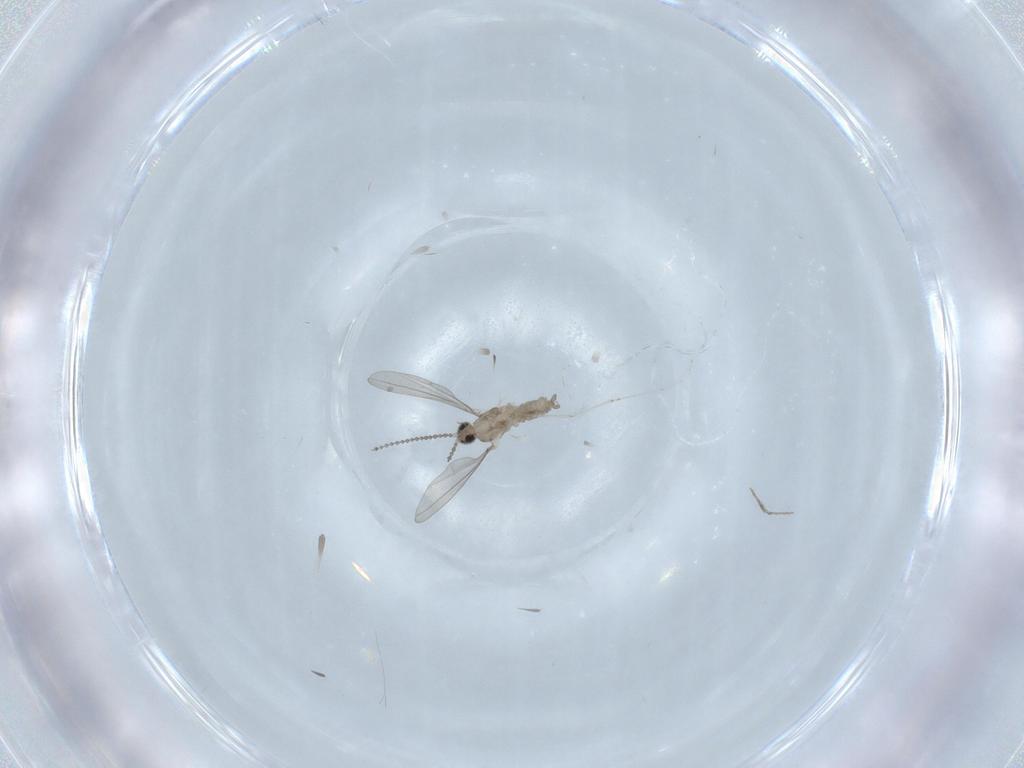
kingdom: Animalia
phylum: Arthropoda
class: Insecta
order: Diptera
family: Cecidomyiidae
